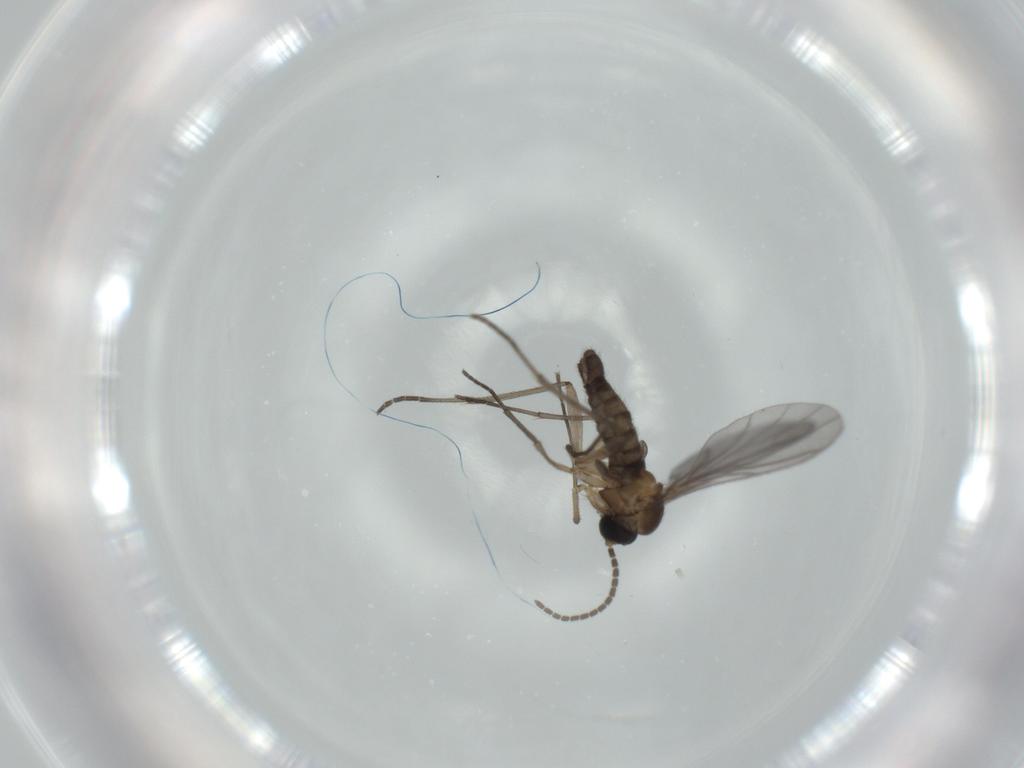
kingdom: Animalia
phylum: Arthropoda
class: Insecta
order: Diptera
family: Sciaridae
